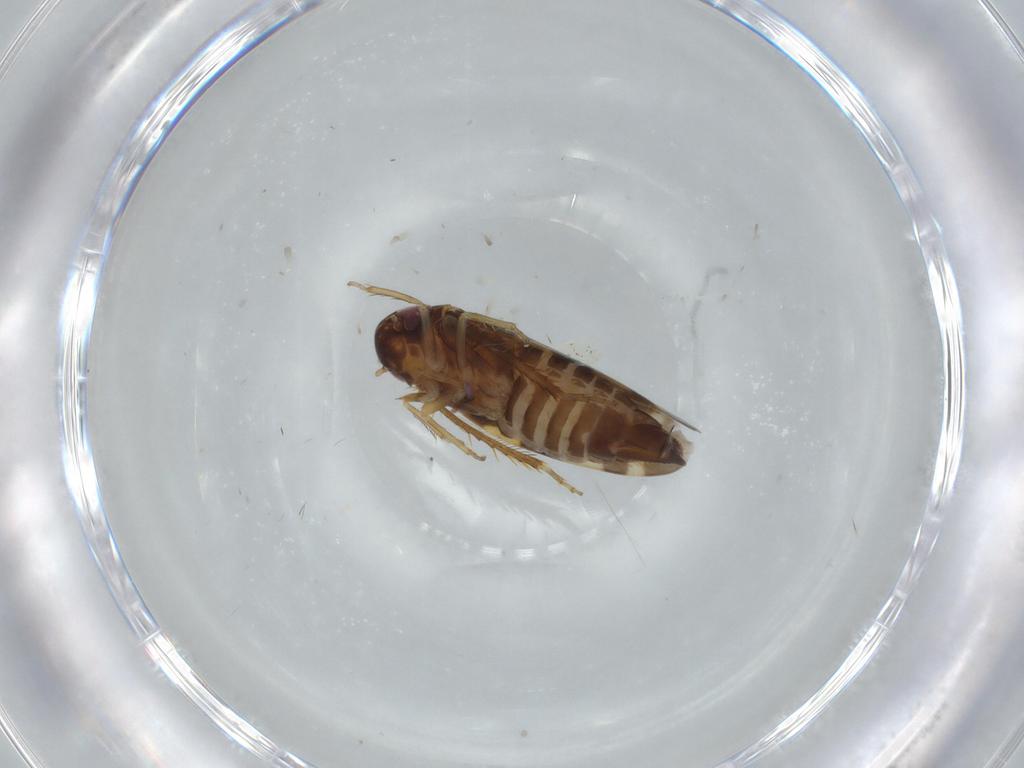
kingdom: Animalia
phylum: Arthropoda
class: Insecta
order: Hemiptera
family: Cicadellidae
